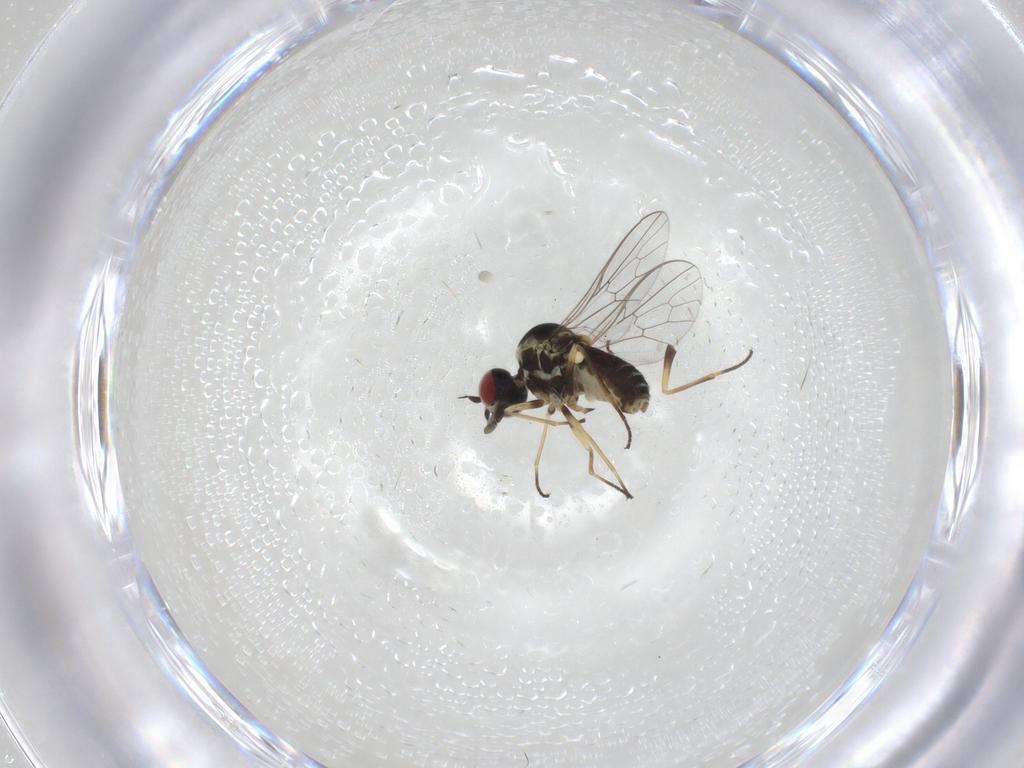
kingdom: Animalia
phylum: Arthropoda
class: Insecta
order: Diptera
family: Bombyliidae
